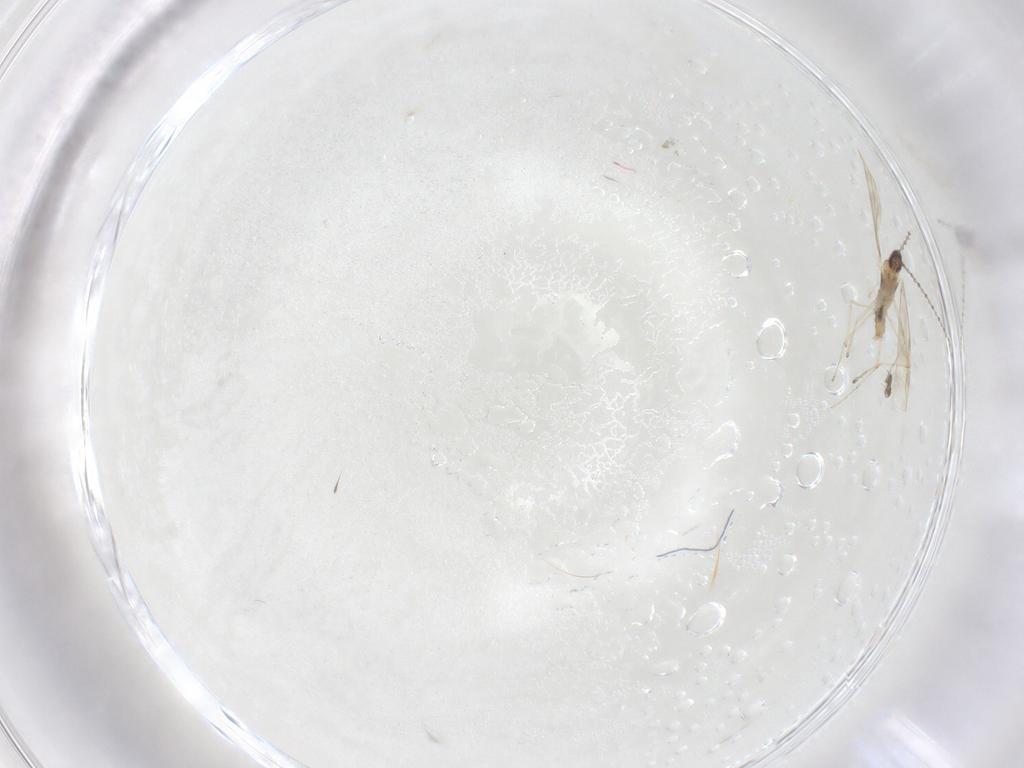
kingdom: Animalia
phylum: Arthropoda
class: Insecta
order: Diptera
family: Cecidomyiidae
